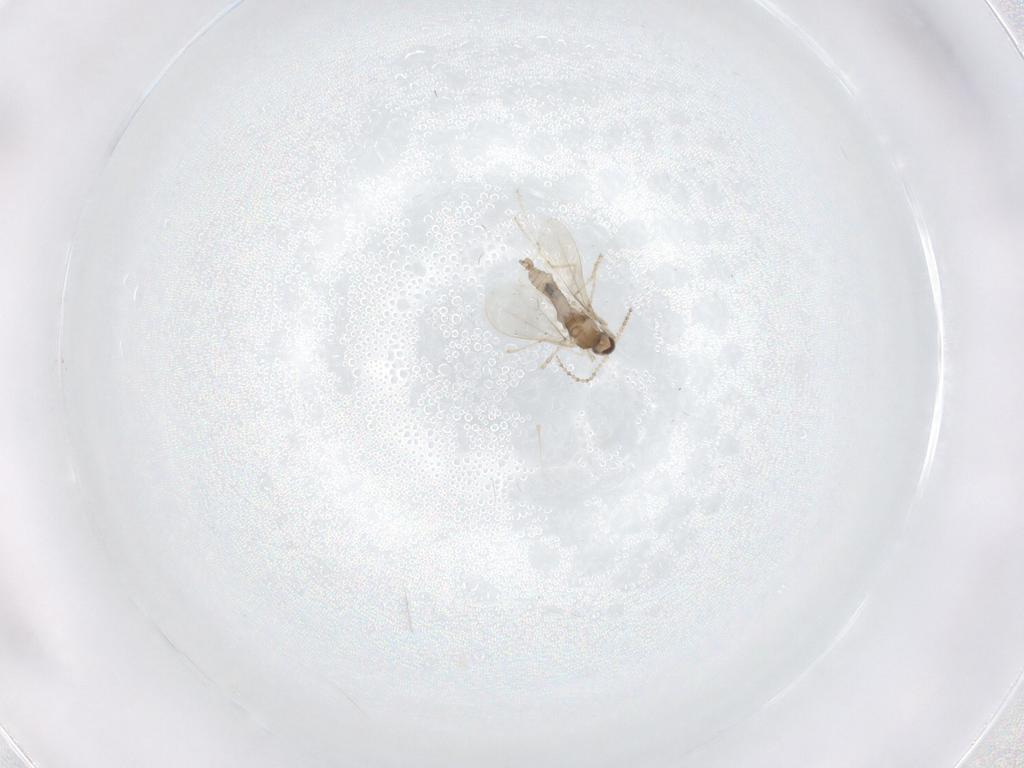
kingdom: Animalia
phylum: Arthropoda
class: Insecta
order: Diptera
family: Cecidomyiidae
